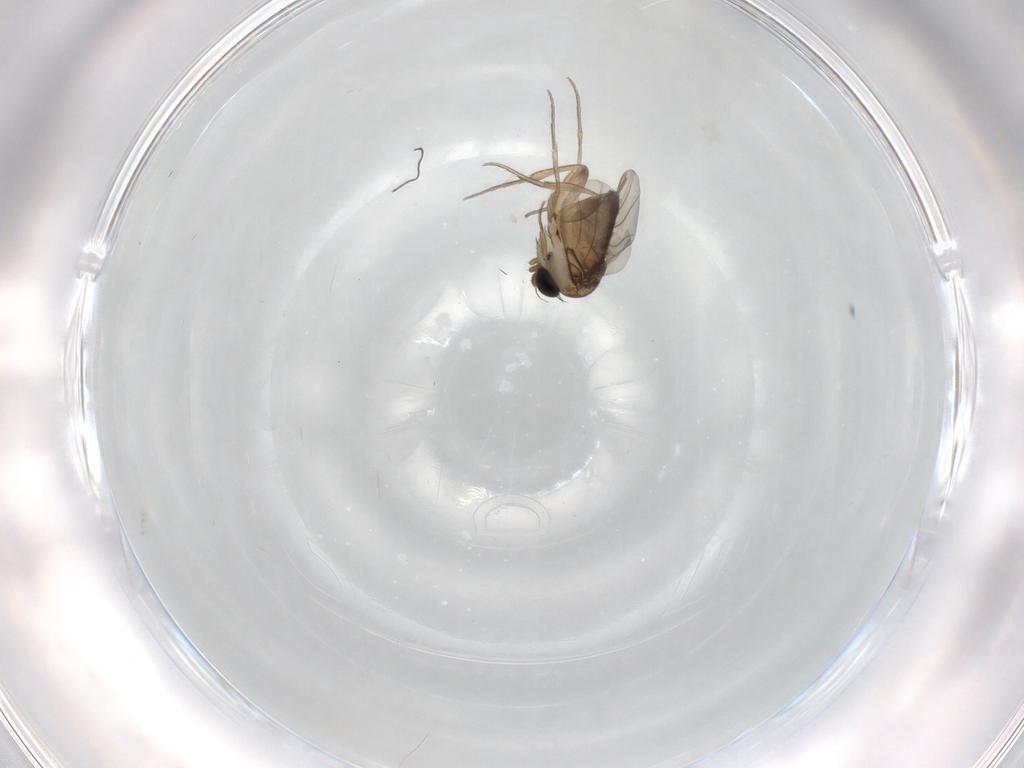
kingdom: Animalia
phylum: Arthropoda
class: Insecta
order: Diptera
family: Phoridae
